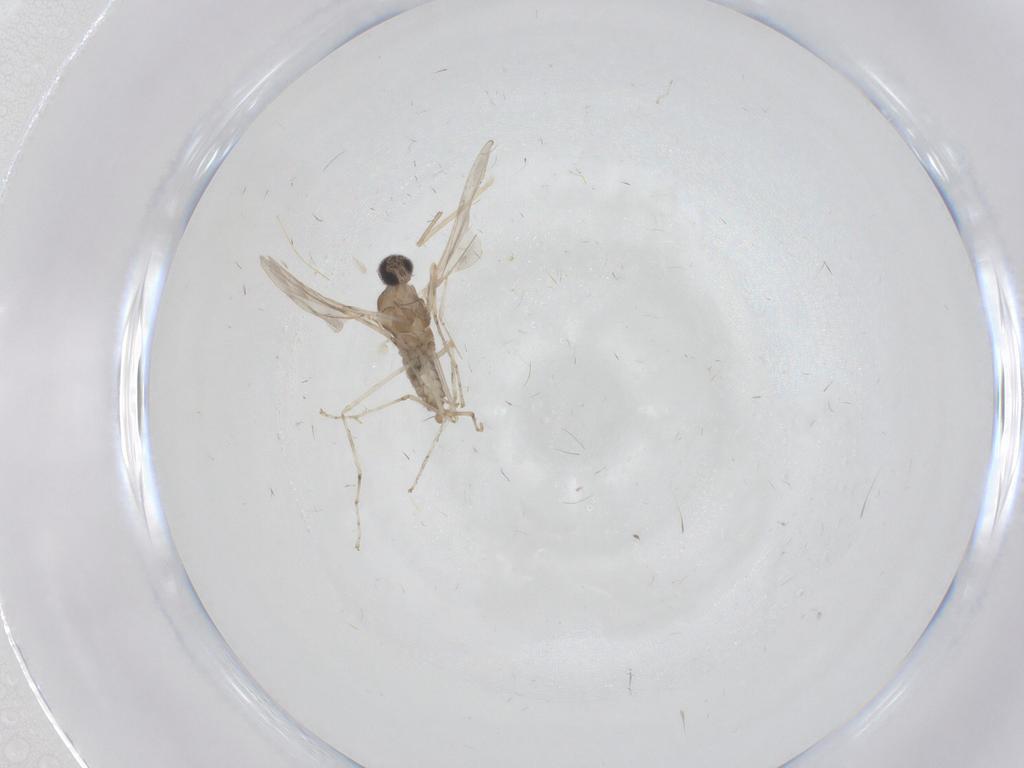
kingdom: Animalia
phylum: Arthropoda
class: Insecta
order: Diptera
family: Cecidomyiidae
